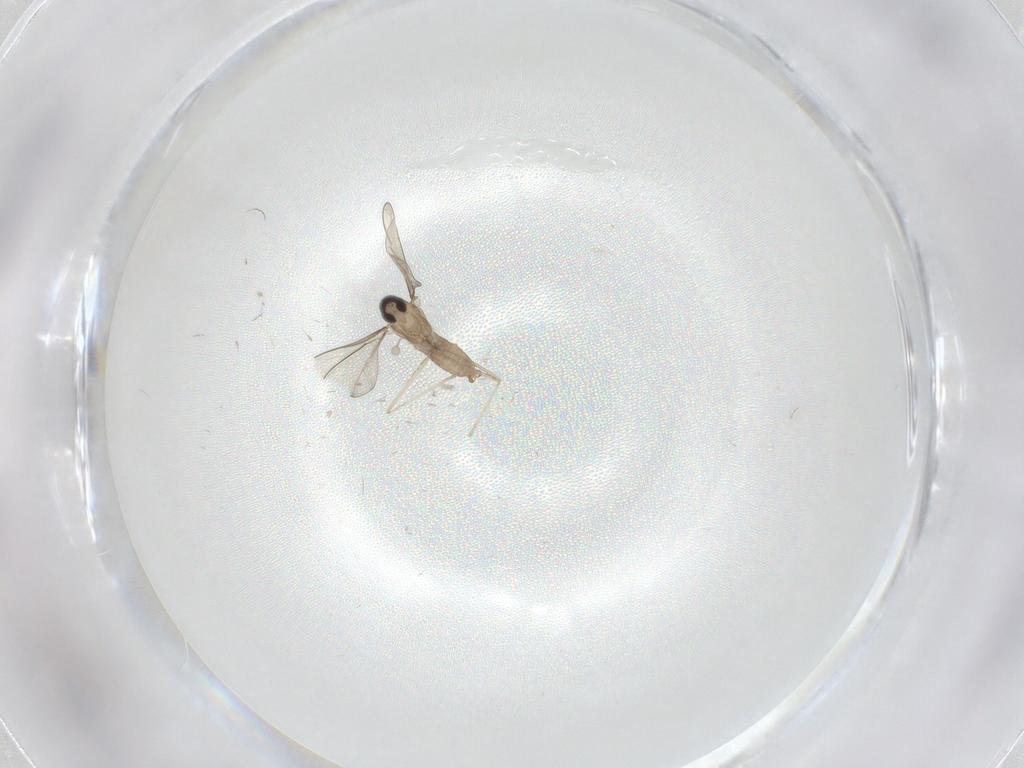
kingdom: Animalia
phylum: Arthropoda
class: Insecta
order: Diptera
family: Cecidomyiidae
